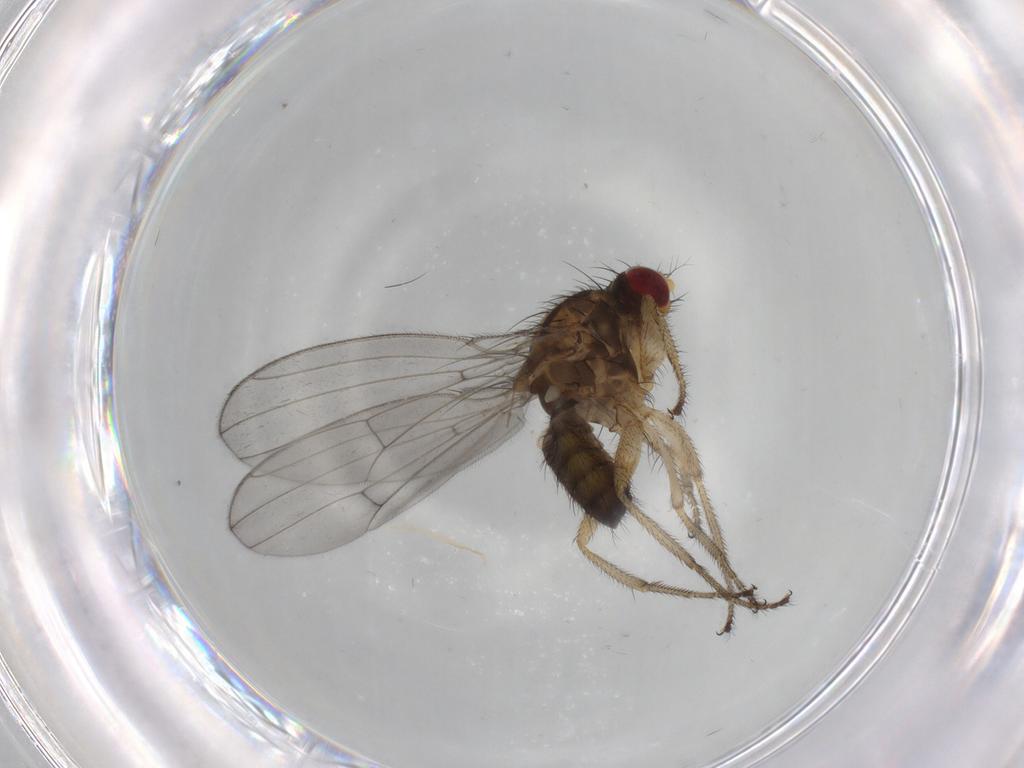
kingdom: Animalia
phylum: Arthropoda
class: Insecta
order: Diptera
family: Drosophilidae
